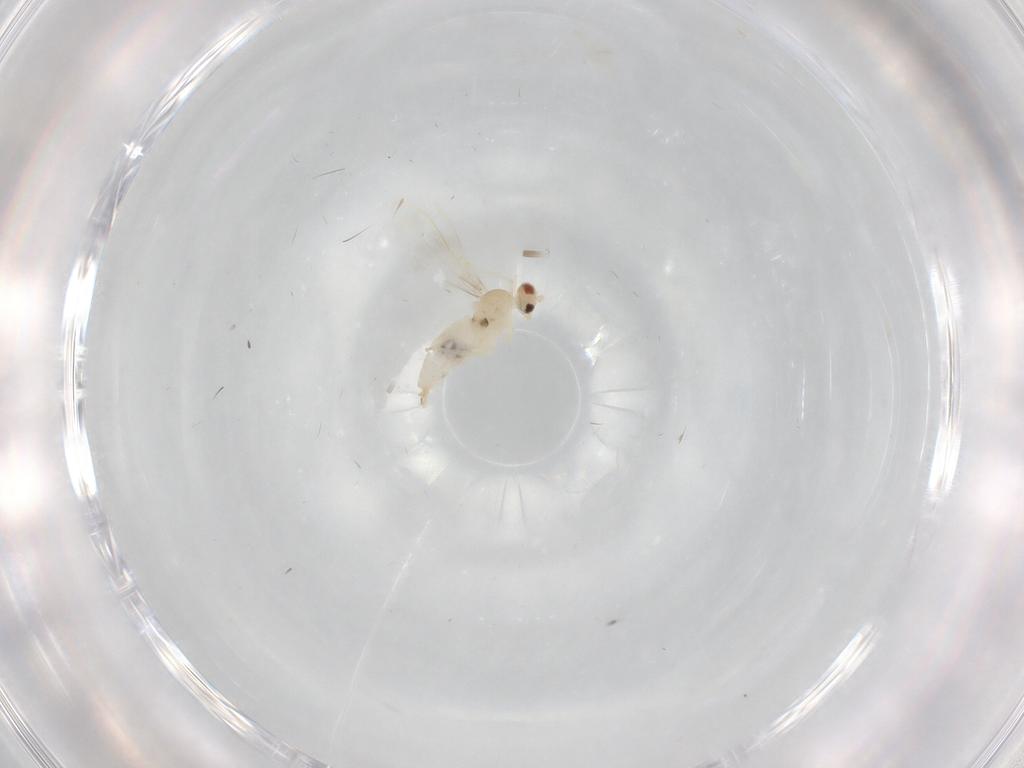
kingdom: Animalia
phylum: Arthropoda
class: Insecta
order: Diptera
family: Cecidomyiidae
